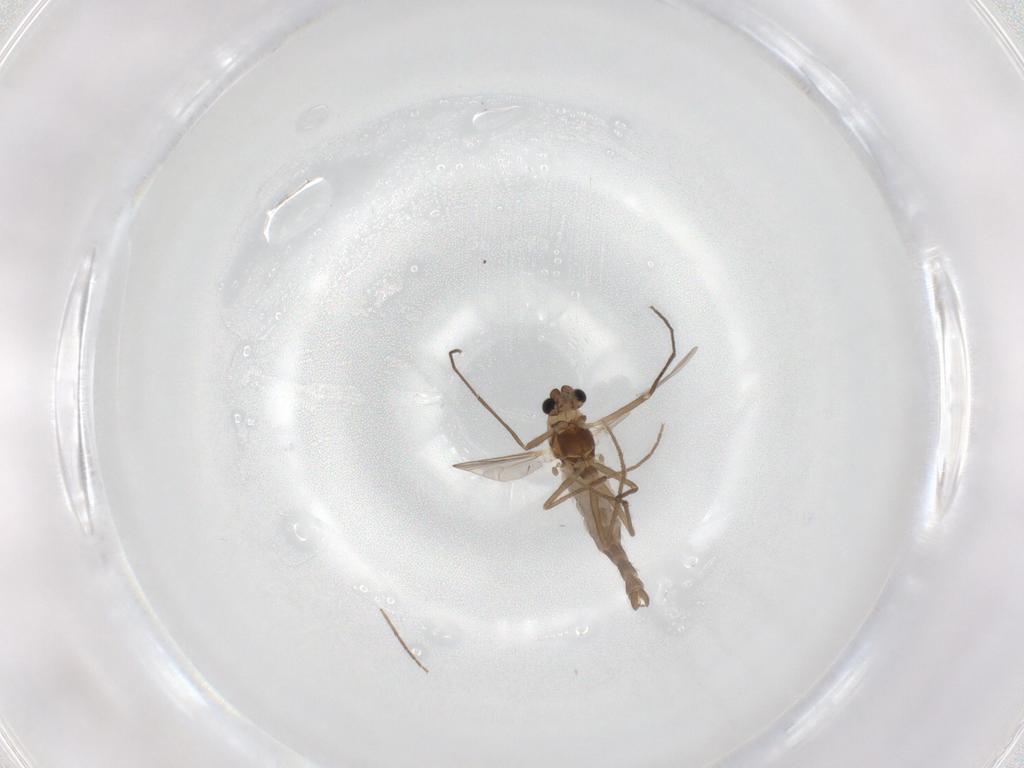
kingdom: Animalia
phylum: Arthropoda
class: Insecta
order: Diptera
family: Chironomidae
